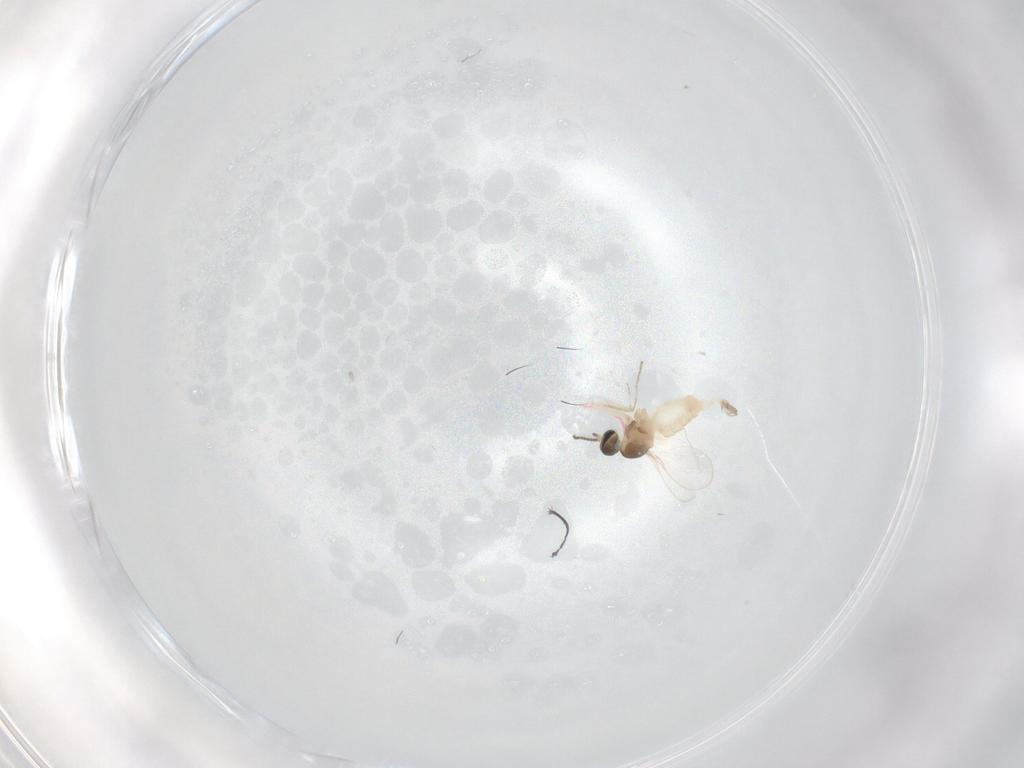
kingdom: Animalia
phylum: Arthropoda
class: Insecta
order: Diptera
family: Cecidomyiidae
